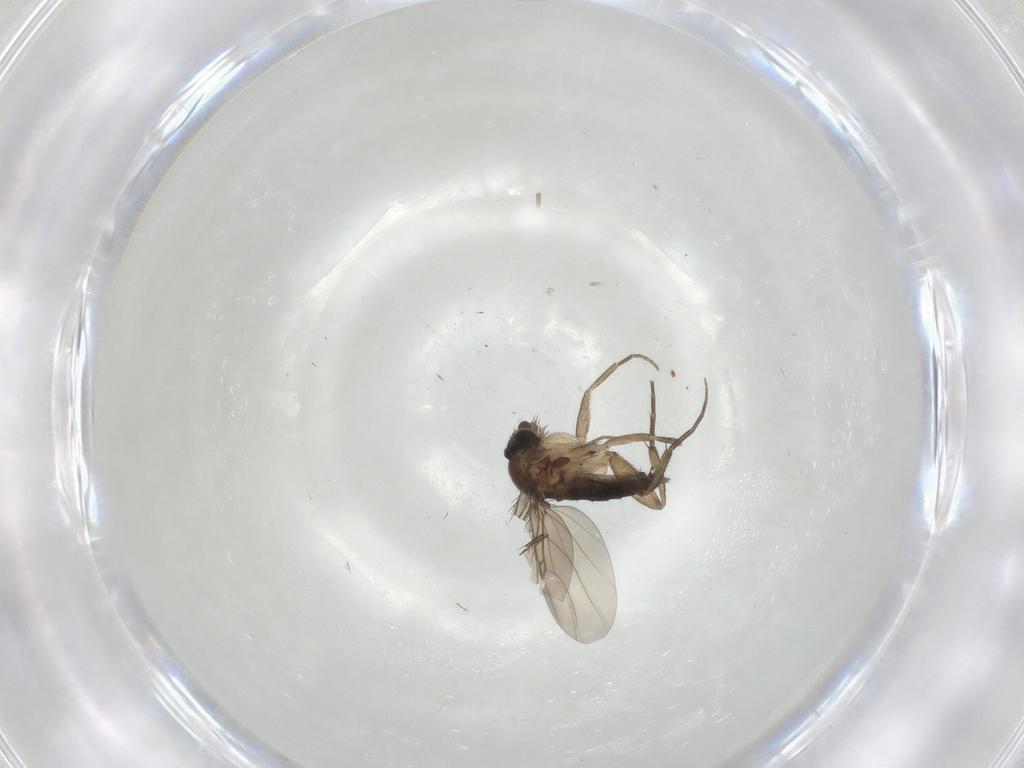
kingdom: Animalia
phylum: Arthropoda
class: Insecta
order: Diptera
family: Phoridae
